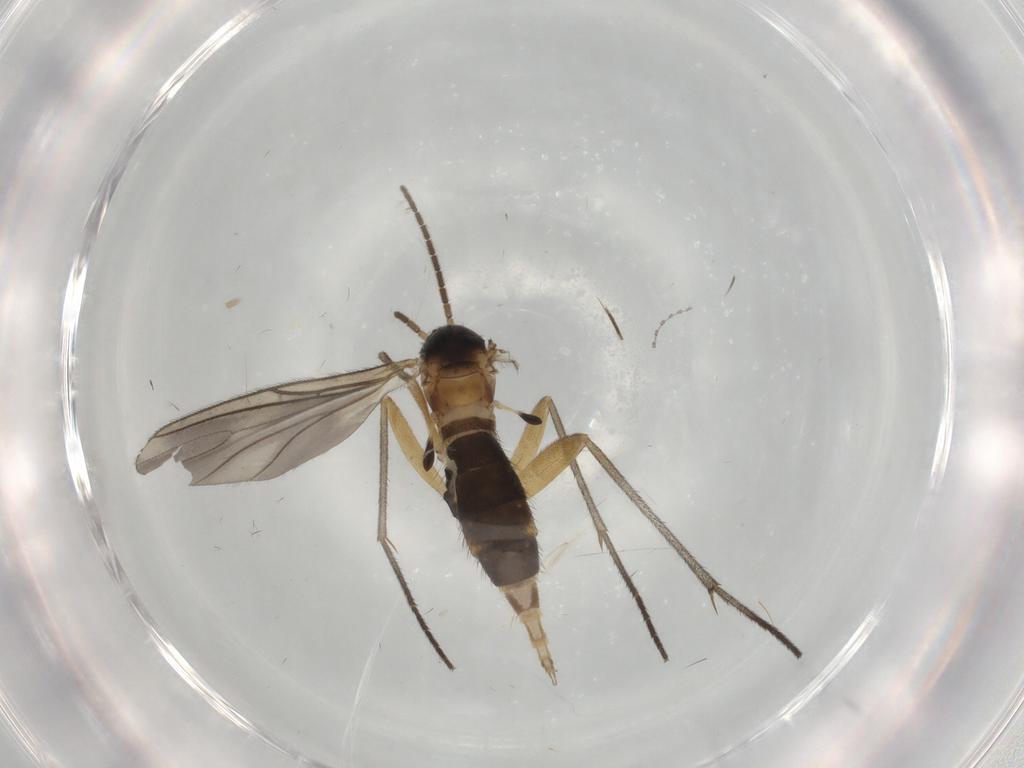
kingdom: Animalia
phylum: Arthropoda
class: Insecta
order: Diptera
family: Sciaridae
